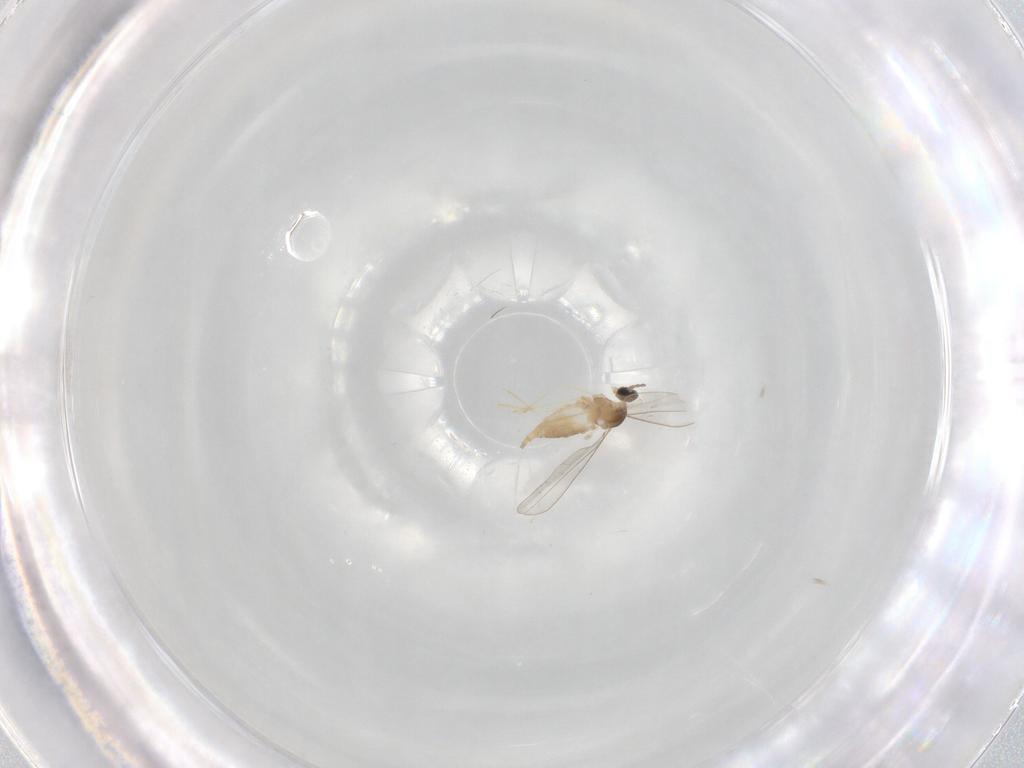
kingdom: Animalia
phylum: Arthropoda
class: Insecta
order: Diptera
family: Cecidomyiidae
